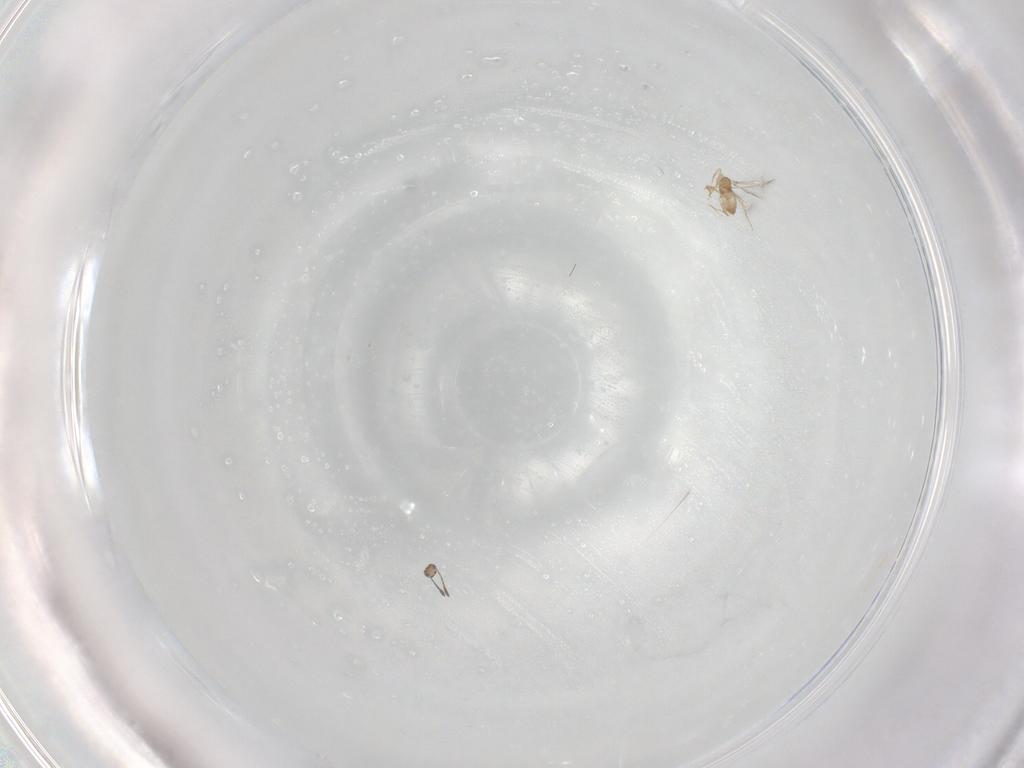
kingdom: Animalia
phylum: Arthropoda
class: Insecta
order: Hymenoptera
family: Mymaridae
